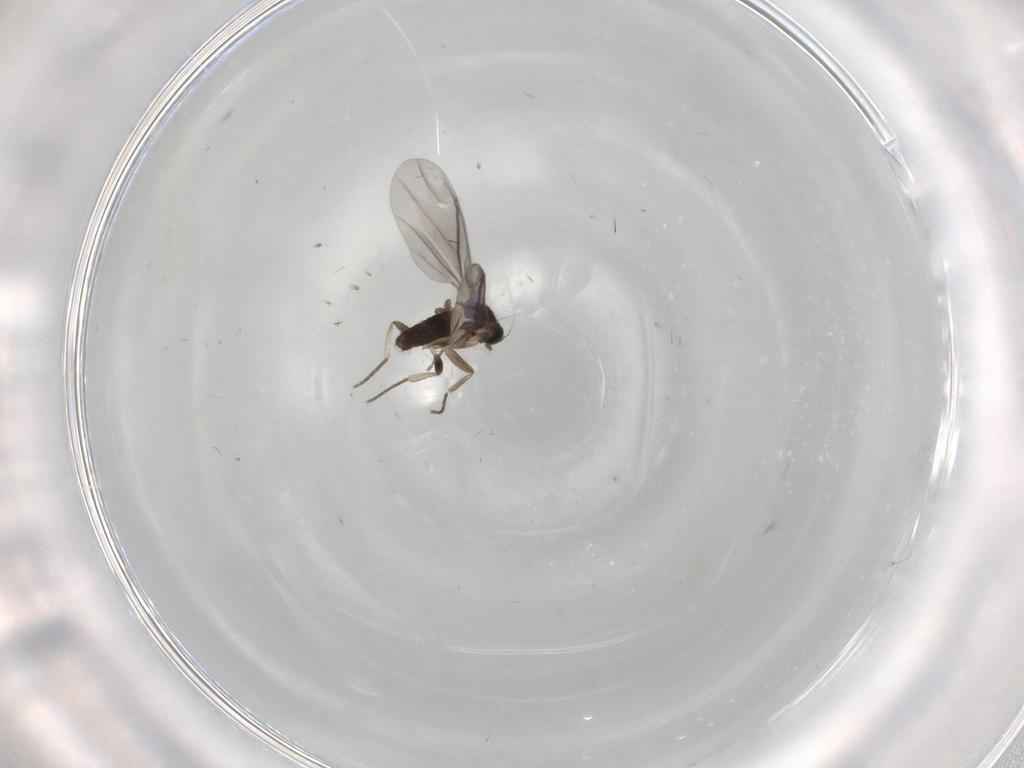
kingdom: Animalia
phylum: Arthropoda
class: Insecta
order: Diptera
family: Phoridae
